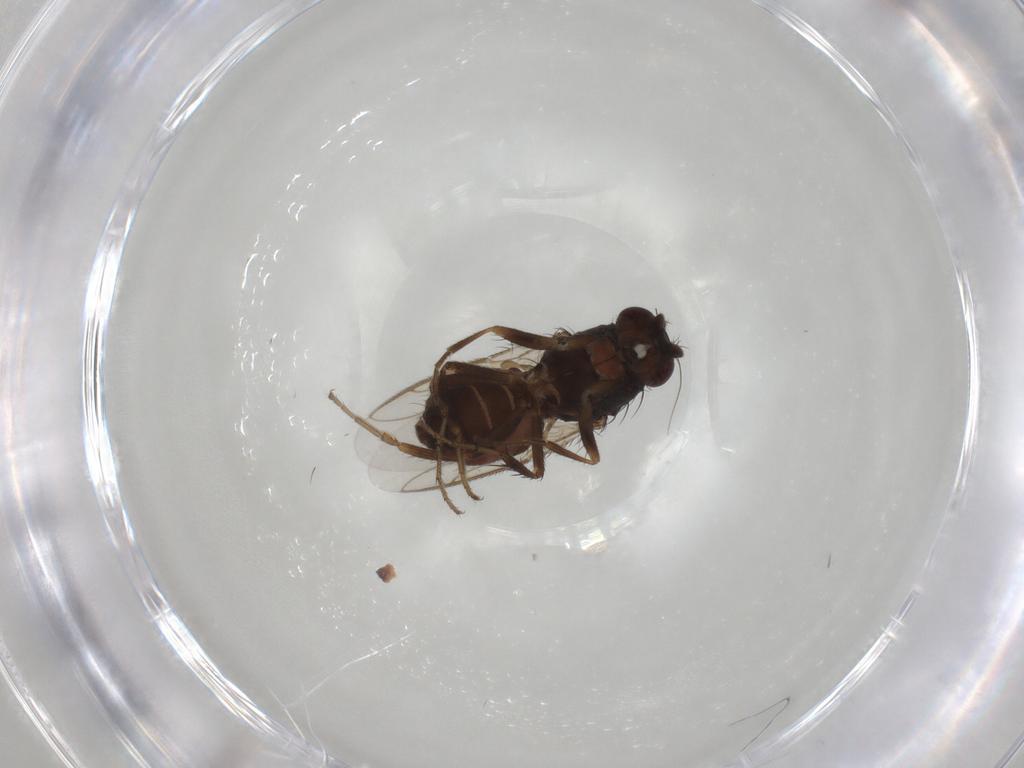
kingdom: Animalia
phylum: Arthropoda
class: Insecta
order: Diptera
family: Sphaeroceridae
